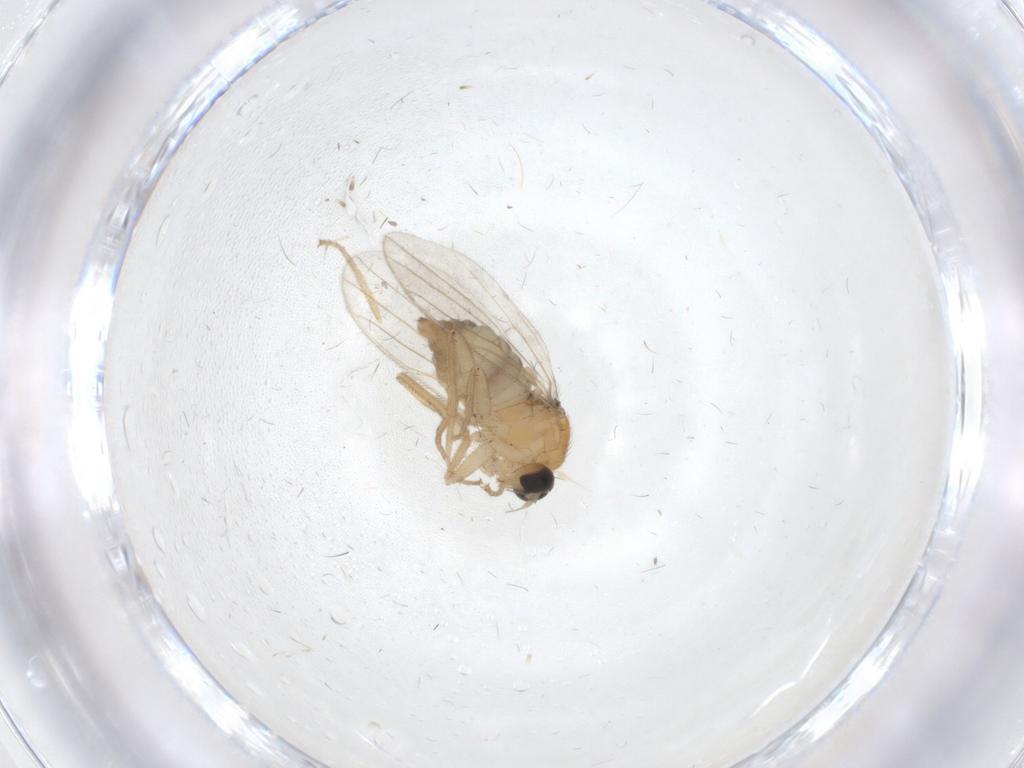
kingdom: Animalia
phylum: Arthropoda
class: Insecta
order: Diptera
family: Hybotidae
